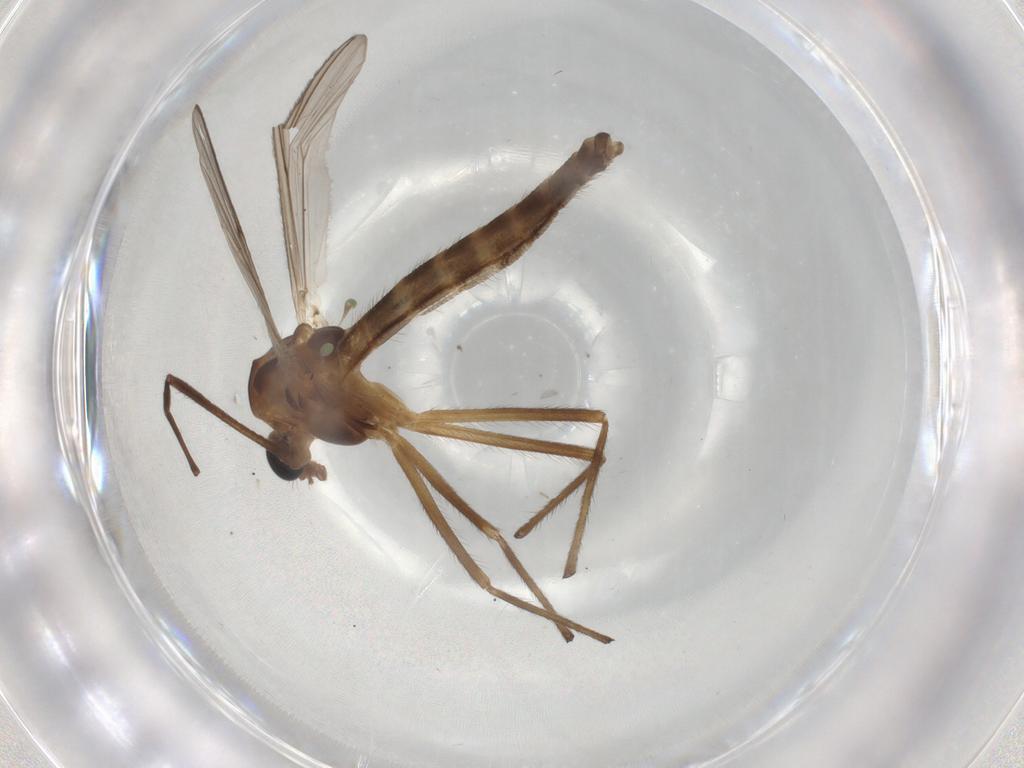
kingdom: Animalia
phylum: Arthropoda
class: Insecta
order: Diptera
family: Chironomidae
